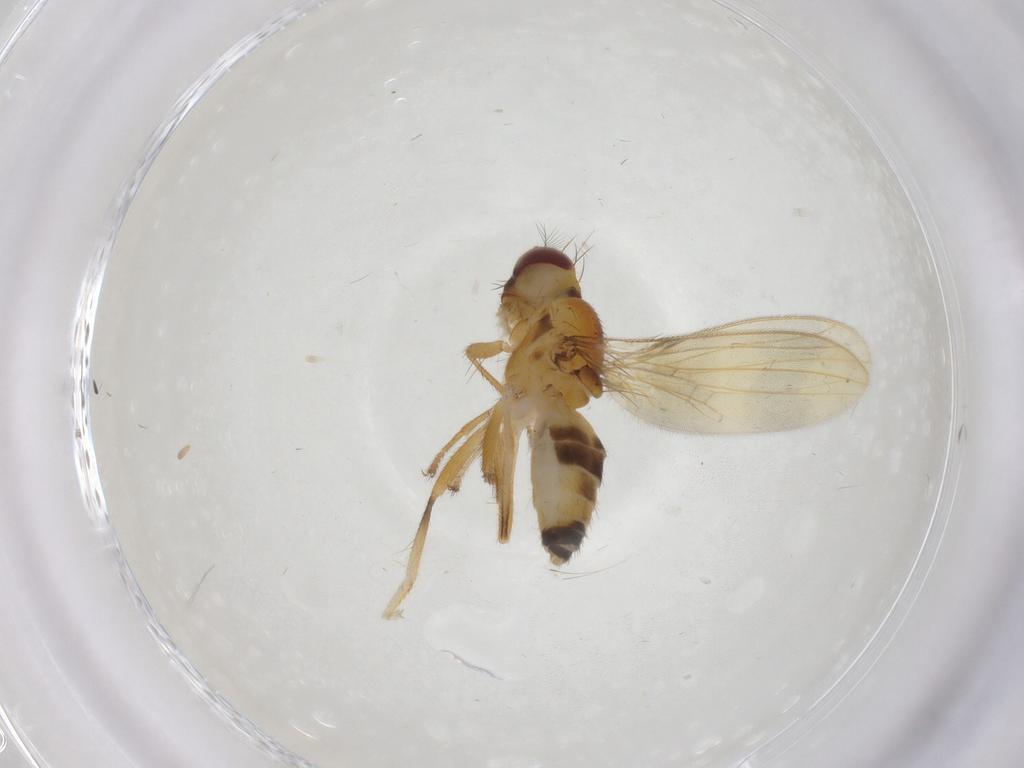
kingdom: Animalia
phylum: Arthropoda
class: Insecta
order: Diptera
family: Periscelididae
